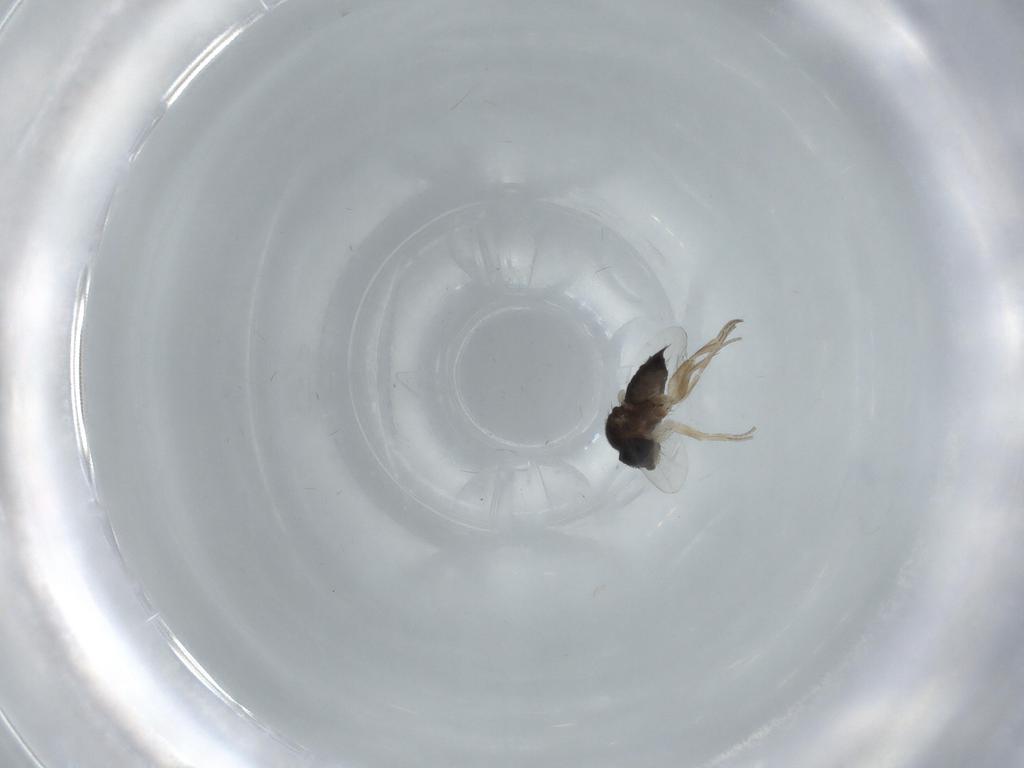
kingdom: Animalia
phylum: Arthropoda
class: Insecta
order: Diptera
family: Phoridae
